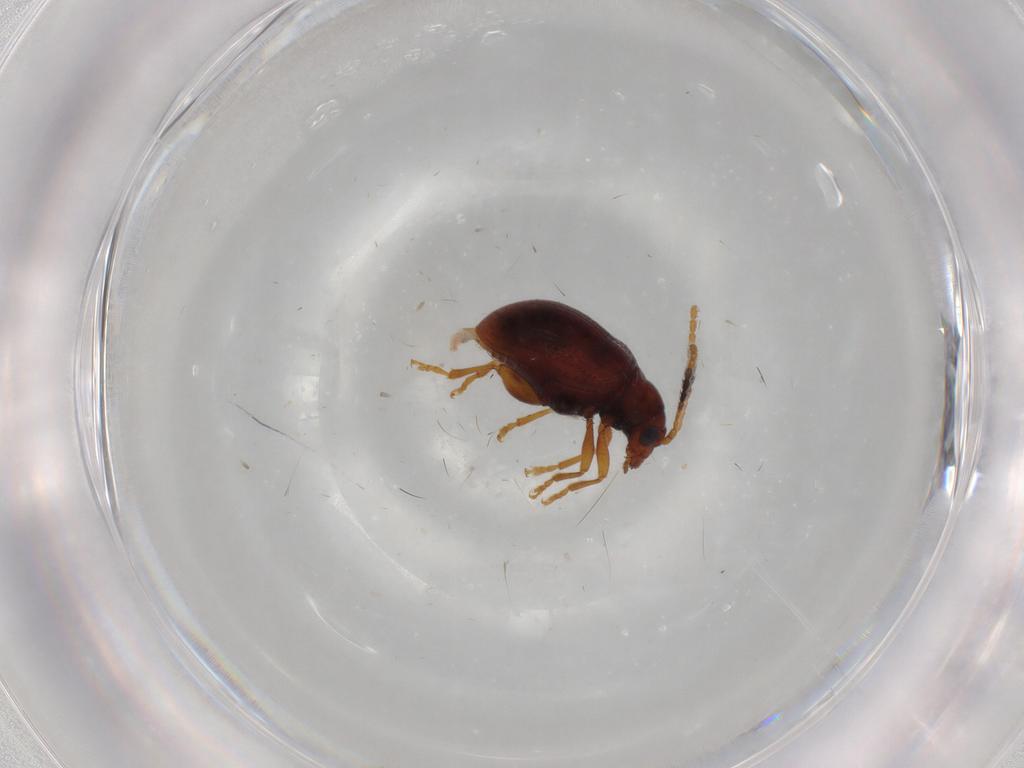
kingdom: Animalia
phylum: Arthropoda
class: Insecta
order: Coleoptera
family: Chrysomelidae
